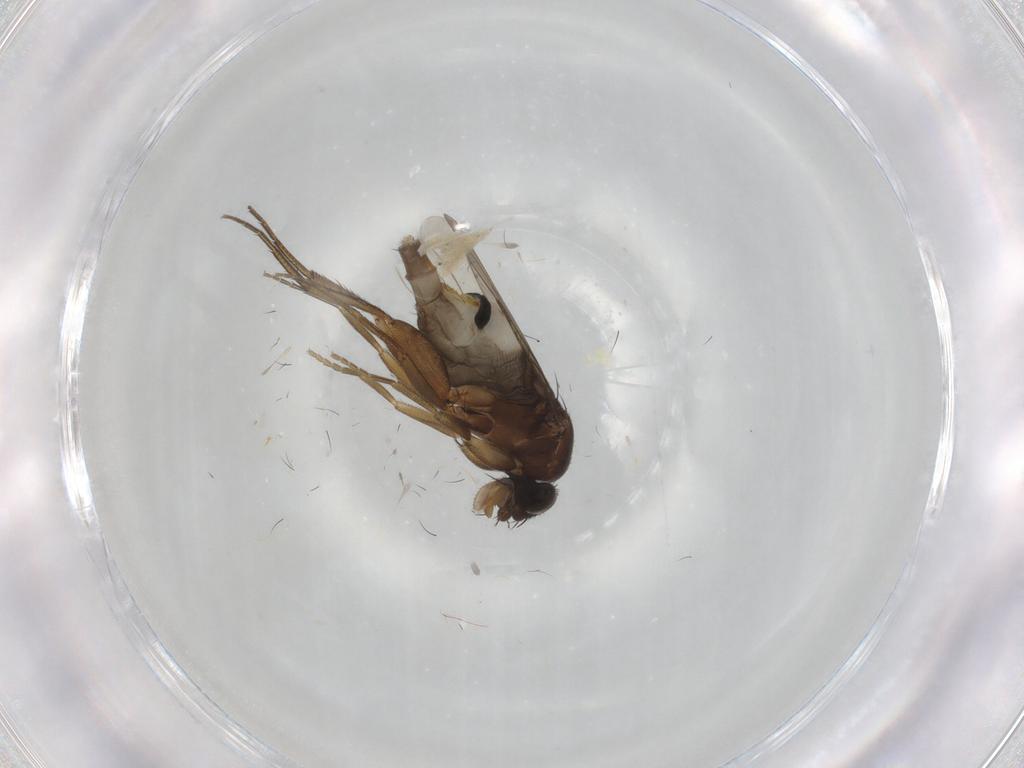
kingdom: Animalia
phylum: Arthropoda
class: Insecta
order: Diptera
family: Phoridae
